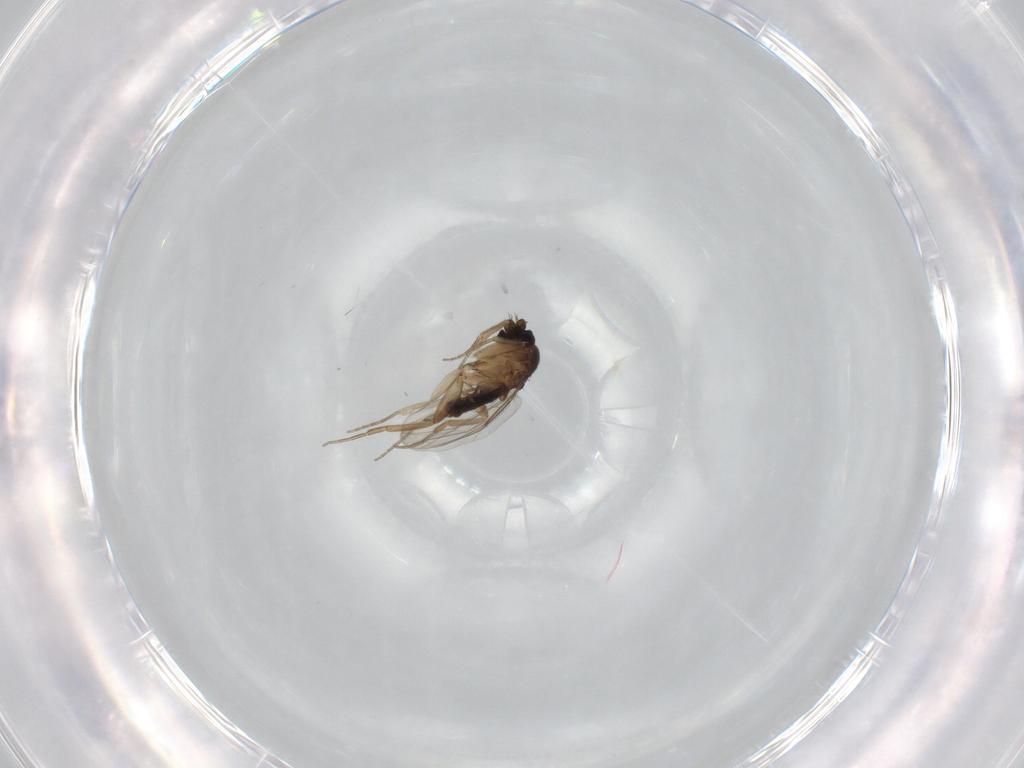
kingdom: Animalia
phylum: Arthropoda
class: Insecta
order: Diptera
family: Phoridae
